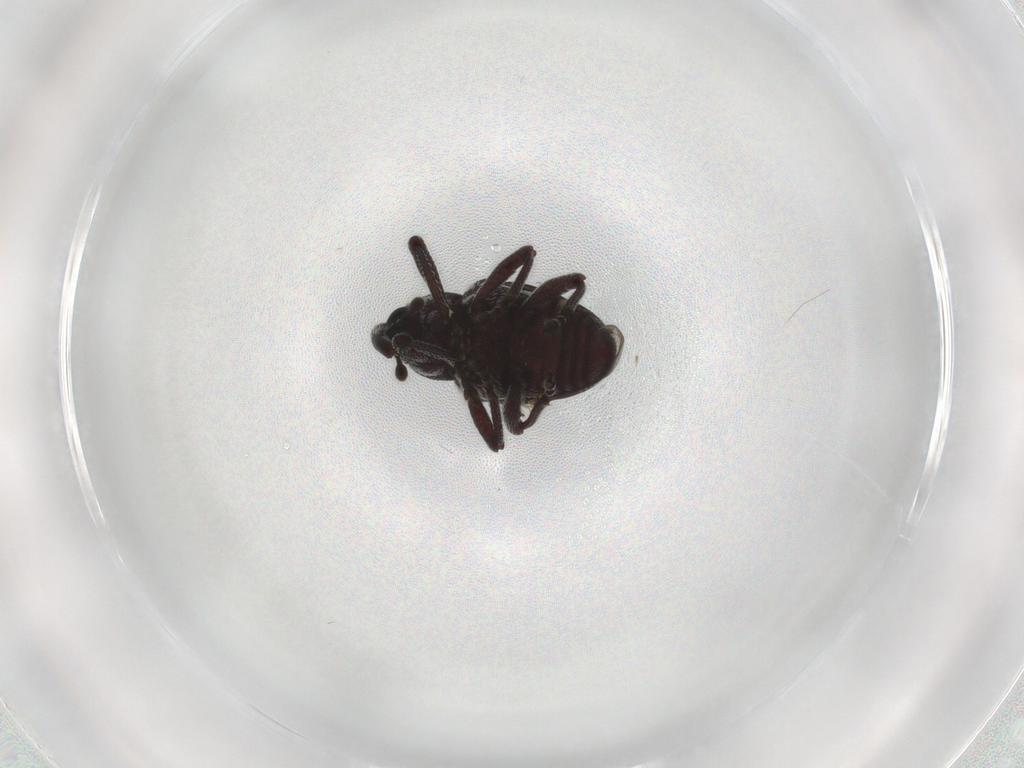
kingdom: Animalia
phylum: Arthropoda
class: Insecta
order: Coleoptera
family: Curculionidae
